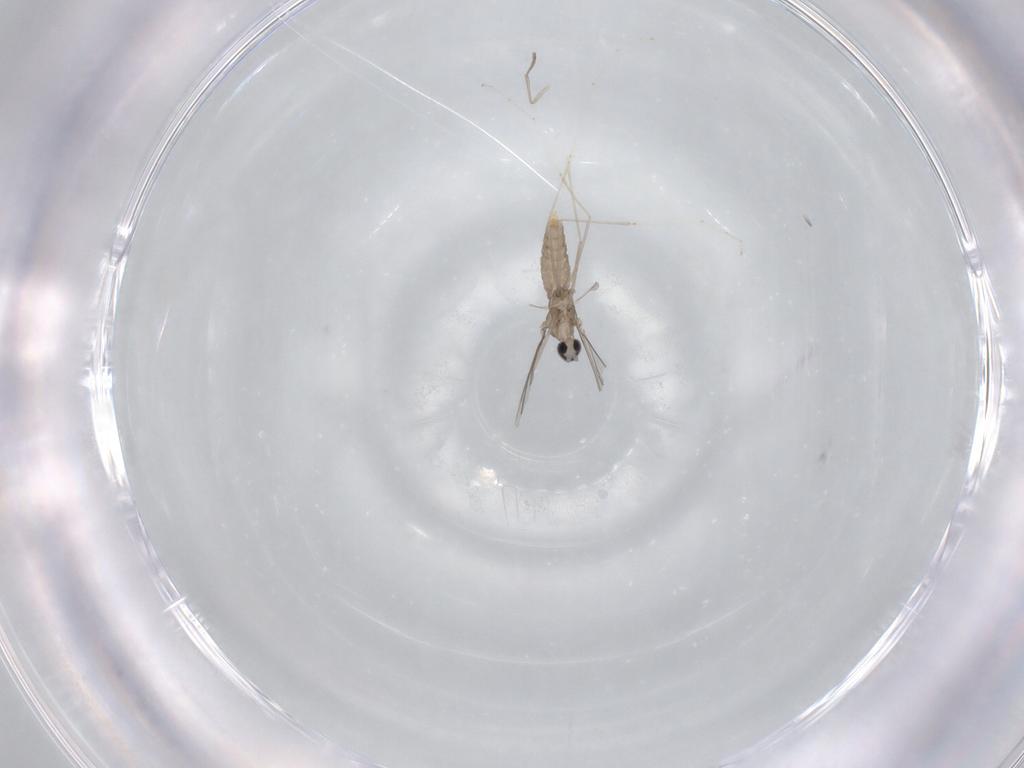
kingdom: Animalia
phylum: Arthropoda
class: Insecta
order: Diptera
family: Cecidomyiidae
